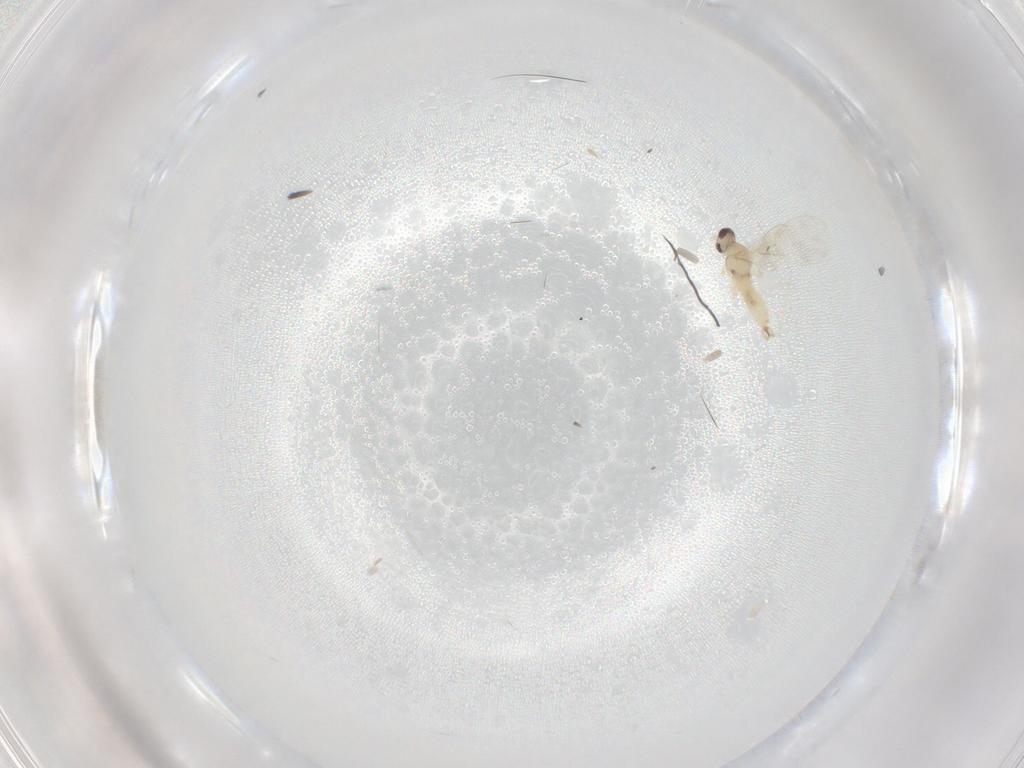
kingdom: Animalia
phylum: Arthropoda
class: Insecta
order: Diptera
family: Cecidomyiidae
